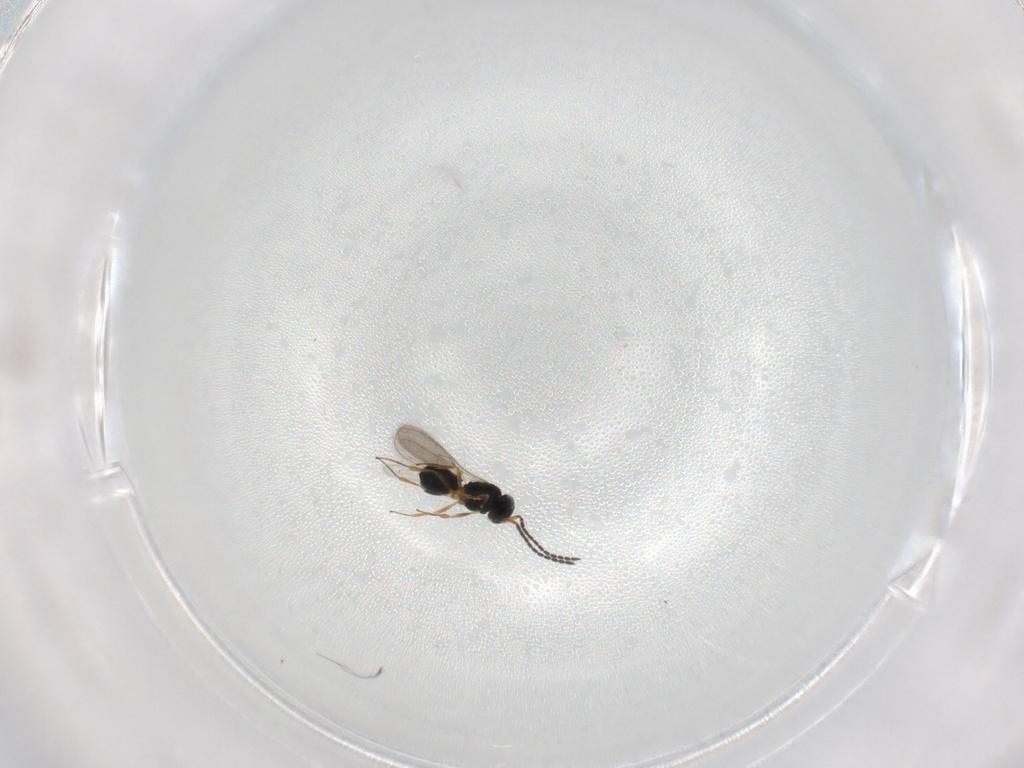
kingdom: Animalia
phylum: Arthropoda
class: Insecta
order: Hymenoptera
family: Scelionidae
